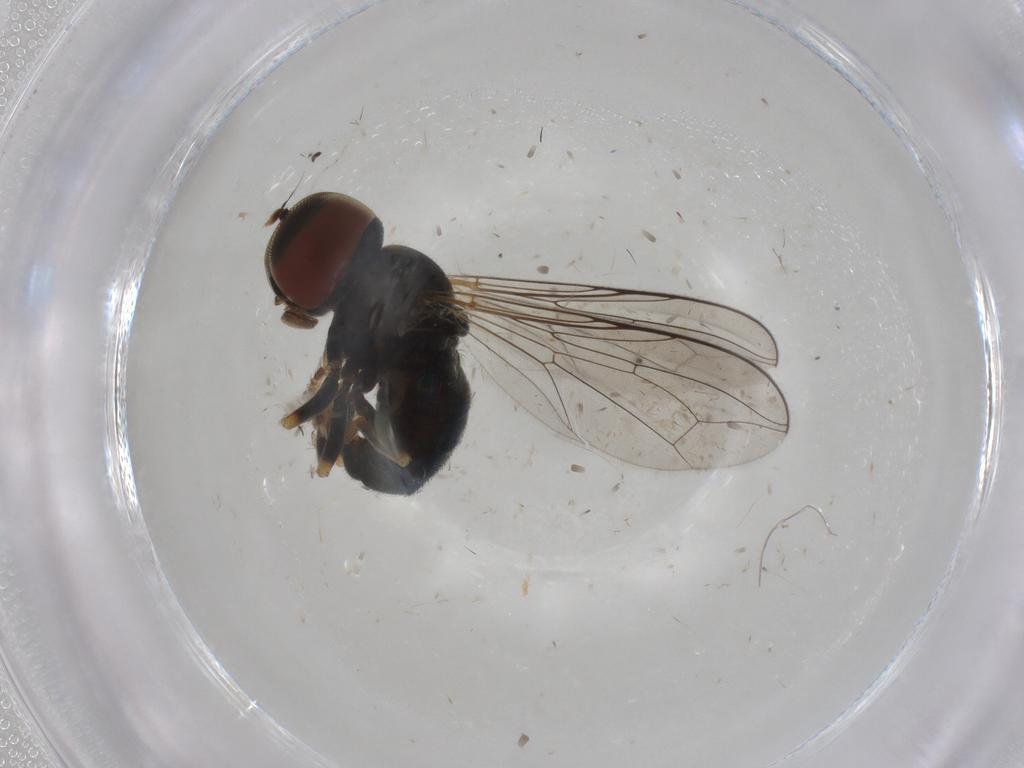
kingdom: Animalia
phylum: Arthropoda
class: Insecta
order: Diptera
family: Pipunculidae
